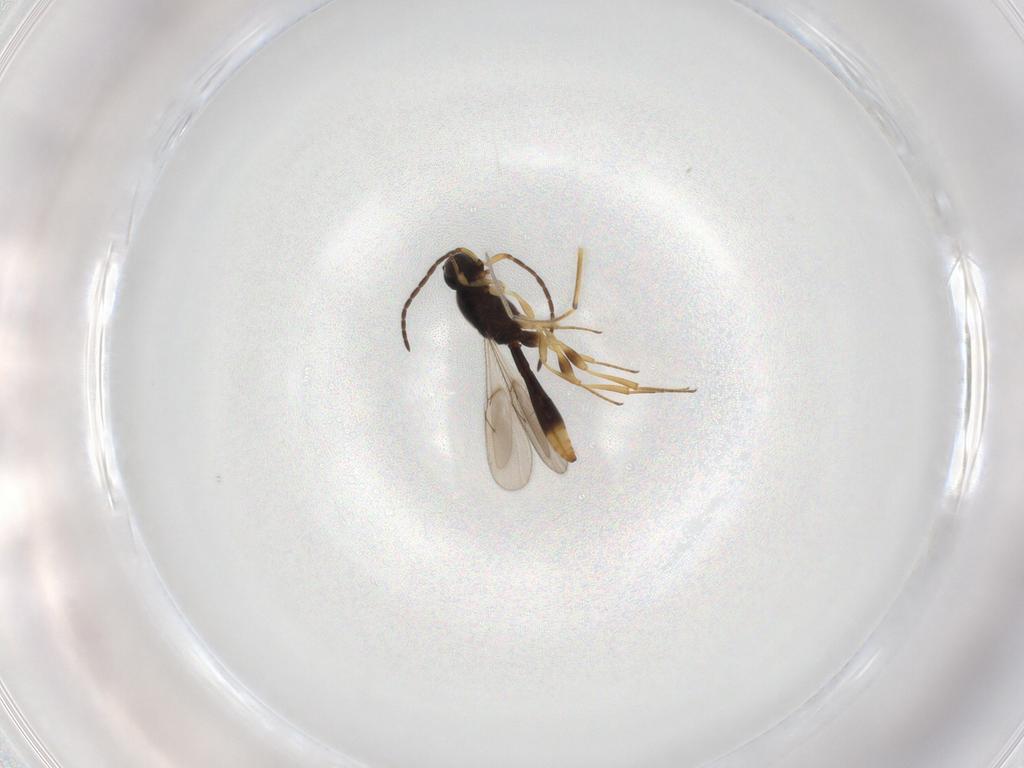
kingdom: Animalia
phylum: Arthropoda
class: Insecta
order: Hymenoptera
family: Scelionidae
